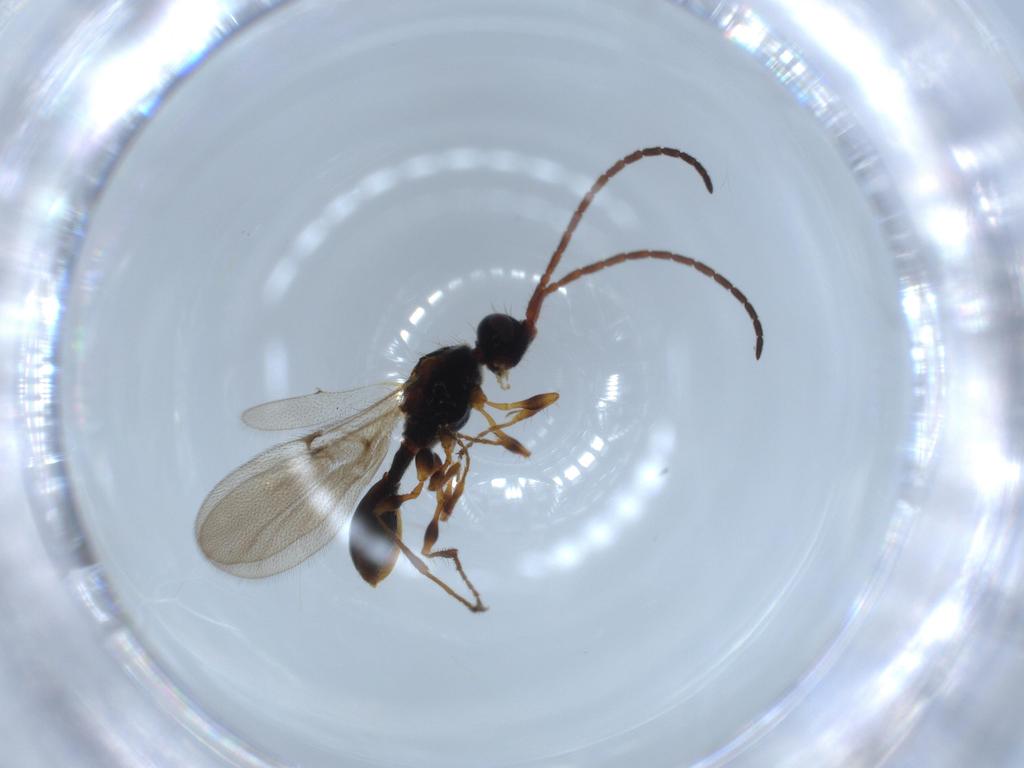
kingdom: Animalia
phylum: Arthropoda
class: Insecta
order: Hymenoptera
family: Diapriidae
